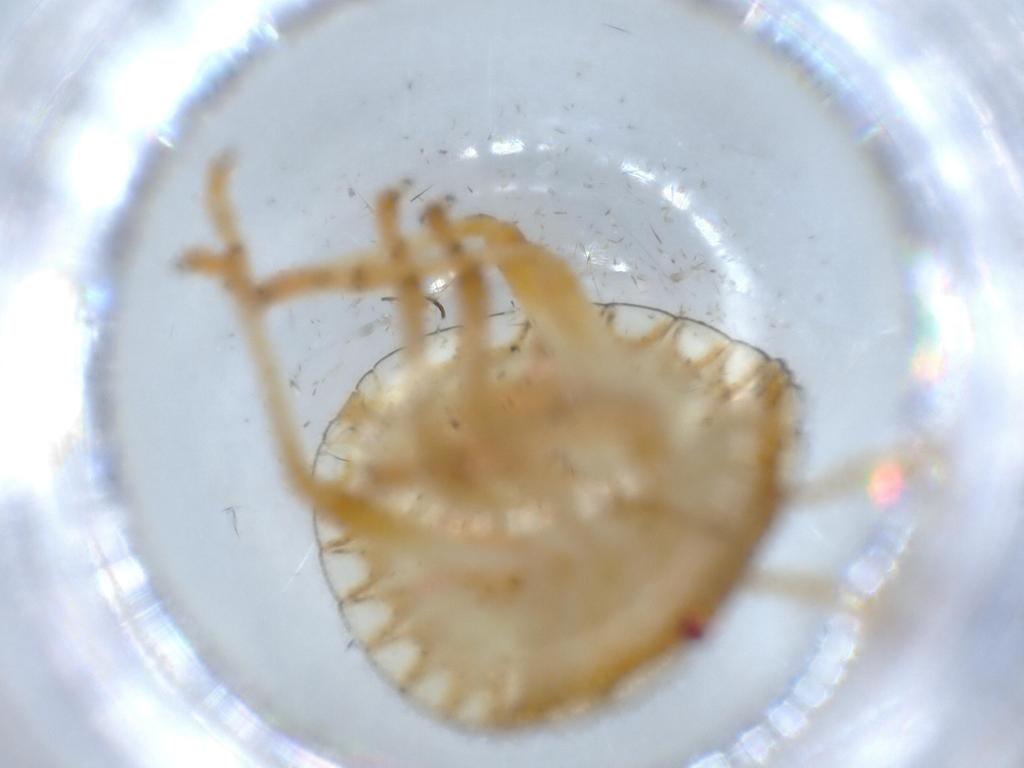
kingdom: Animalia
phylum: Arthropoda
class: Insecta
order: Hemiptera
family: Pentatomidae
